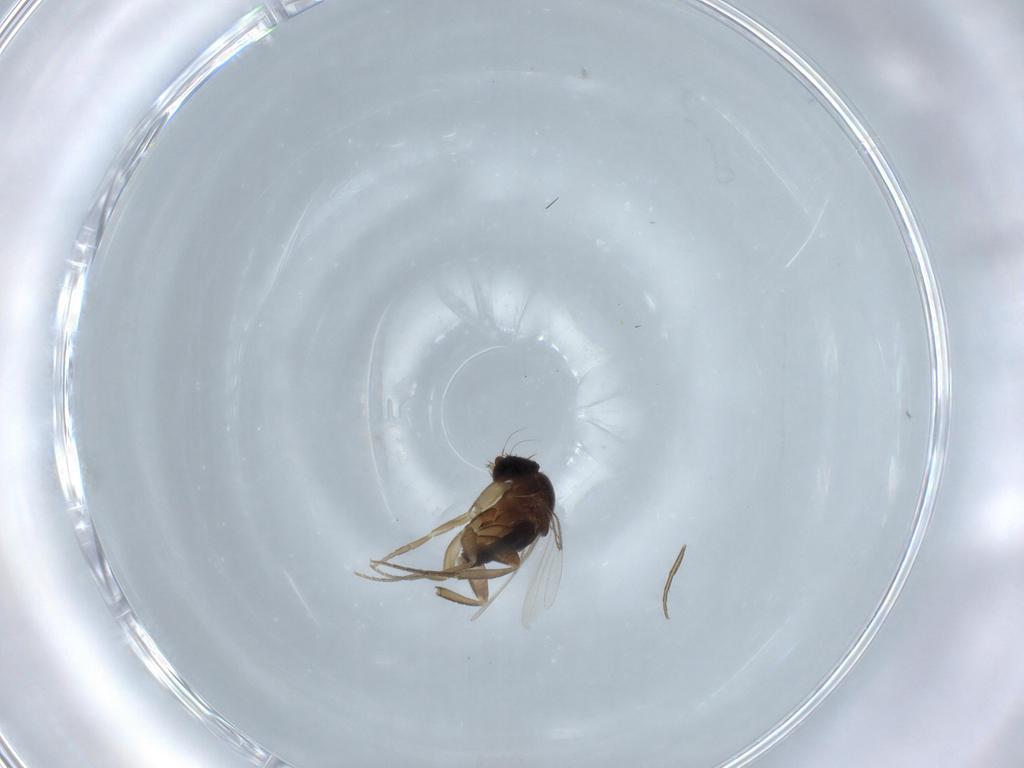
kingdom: Animalia
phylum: Arthropoda
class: Insecta
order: Diptera
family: Phoridae
